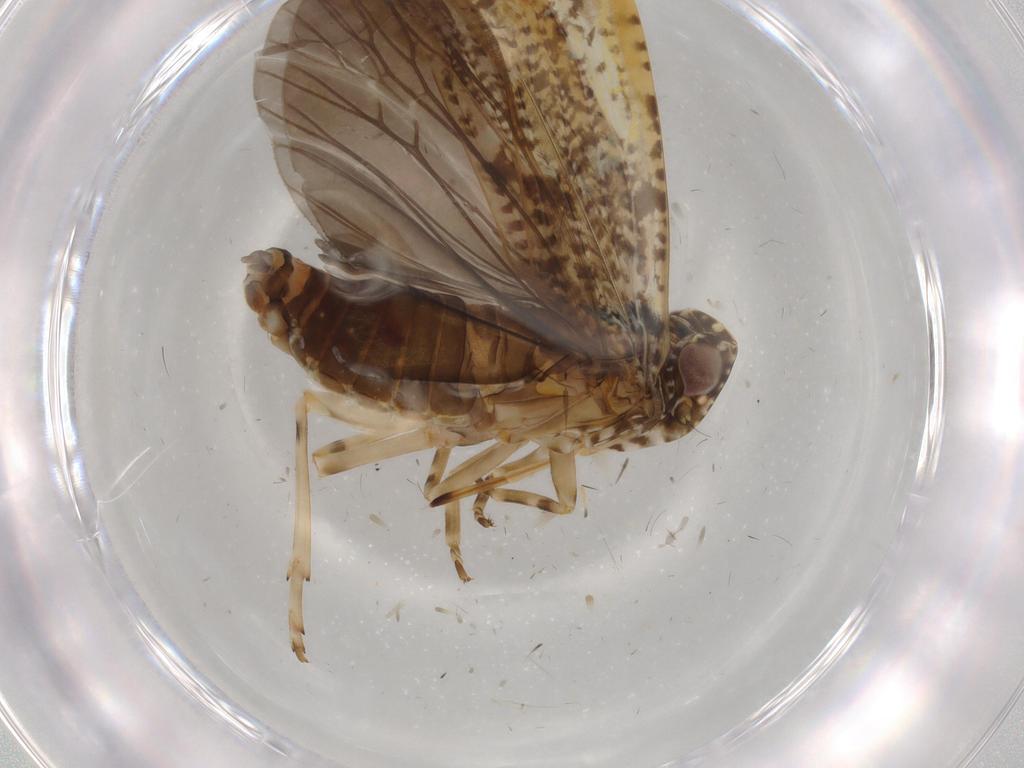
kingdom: Animalia
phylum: Arthropoda
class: Insecta
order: Hemiptera
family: Achilidae
